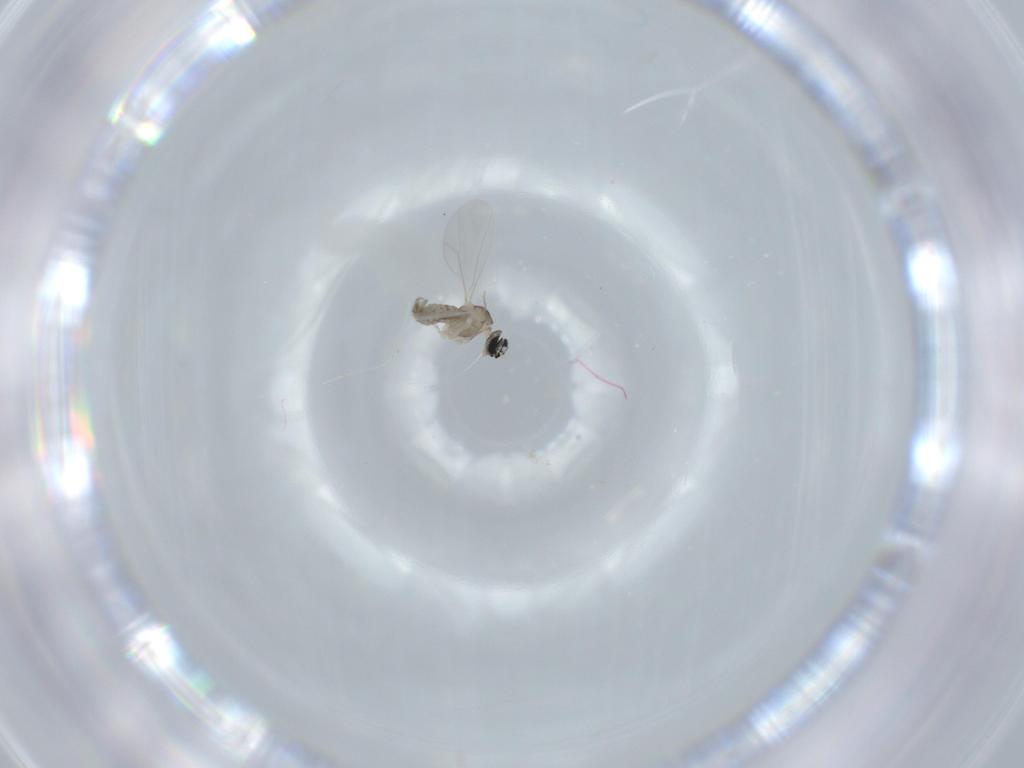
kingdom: Animalia
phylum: Arthropoda
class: Insecta
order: Diptera
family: Cecidomyiidae
